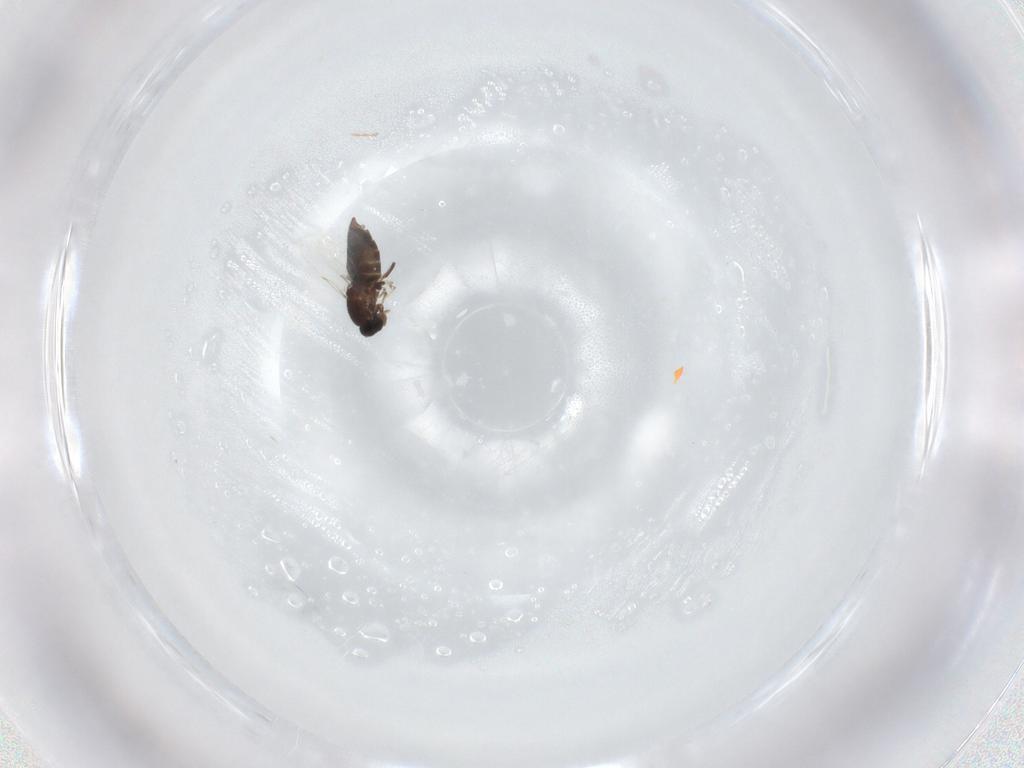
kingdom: Animalia
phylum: Arthropoda
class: Insecta
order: Diptera
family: Scatopsidae
